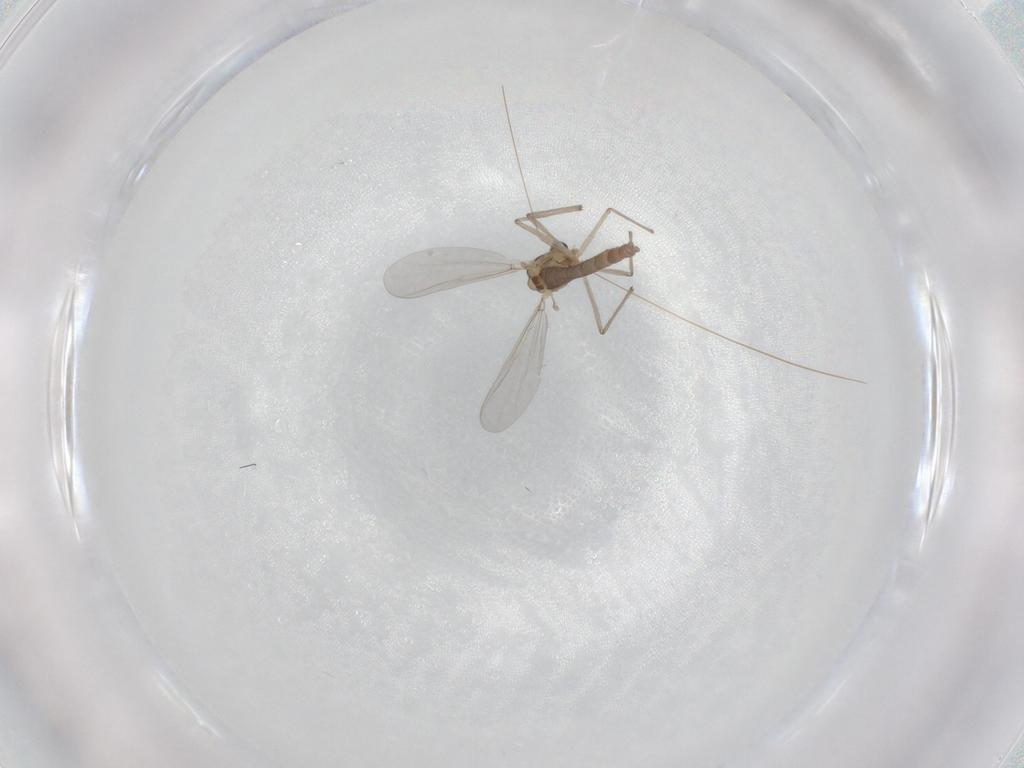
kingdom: Animalia
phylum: Arthropoda
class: Insecta
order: Diptera
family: Chironomidae
